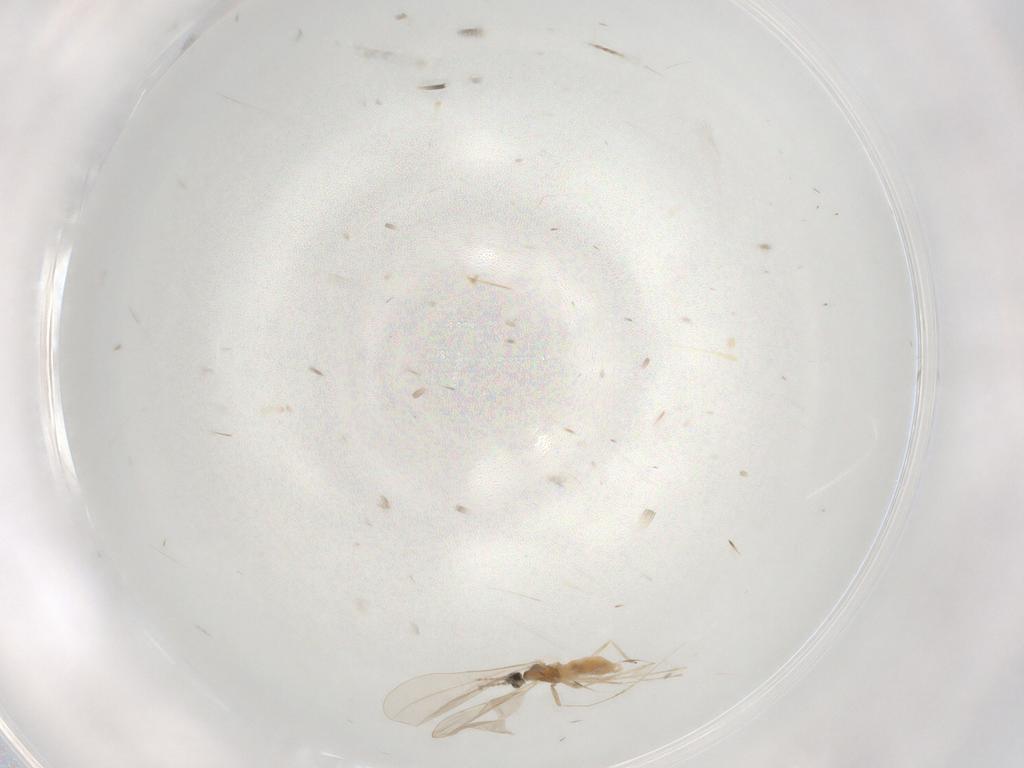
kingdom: Animalia
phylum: Arthropoda
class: Insecta
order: Diptera
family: Cecidomyiidae
